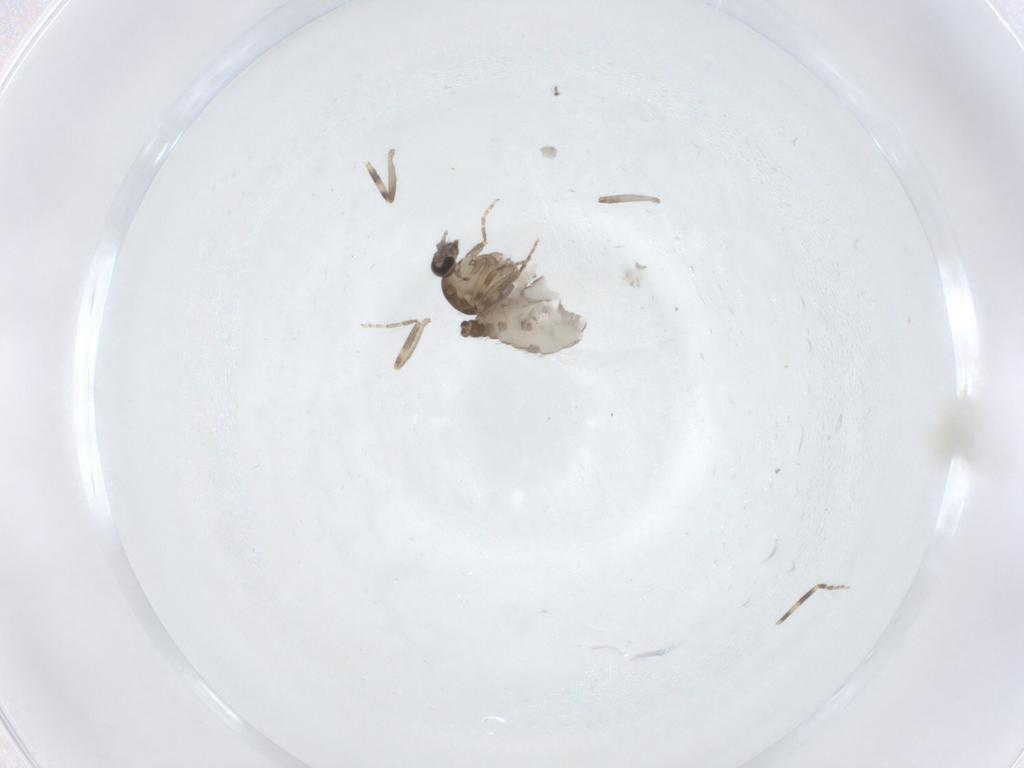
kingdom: Animalia
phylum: Arthropoda
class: Insecta
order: Diptera
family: Ceratopogonidae
